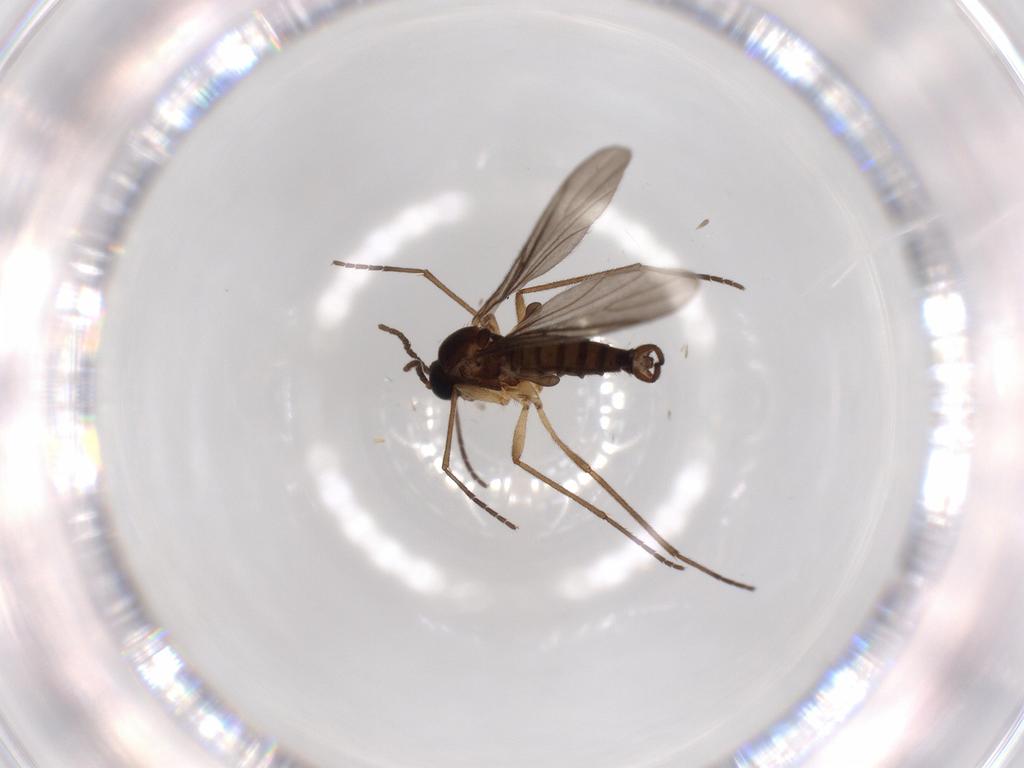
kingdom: Animalia
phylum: Arthropoda
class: Insecta
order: Diptera
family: Sciaridae
